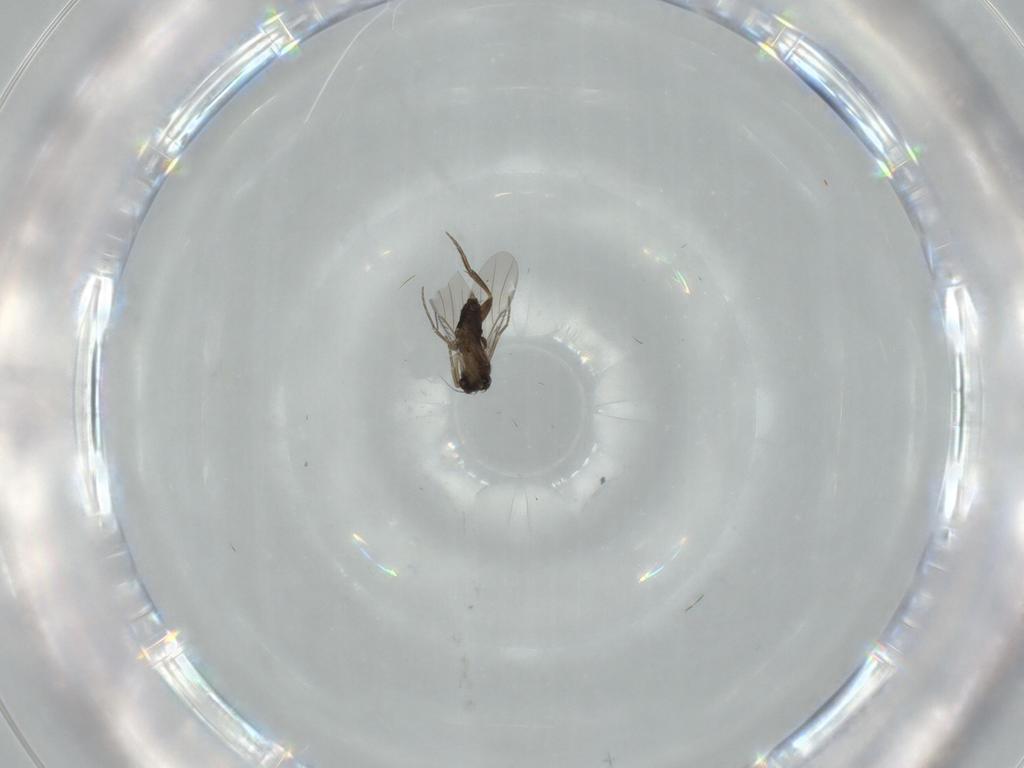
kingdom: Animalia
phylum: Arthropoda
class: Insecta
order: Diptera
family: Phoridae
